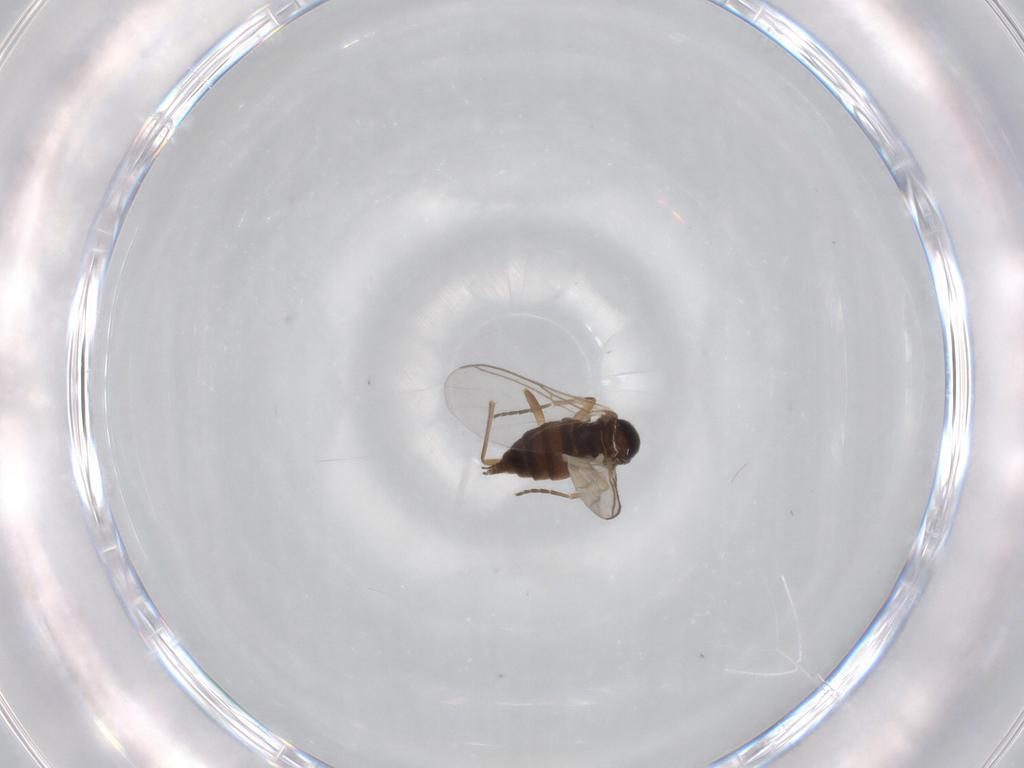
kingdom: Animalia
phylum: Arthropoda
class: Insecta
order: Diptera
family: Sciaridae
